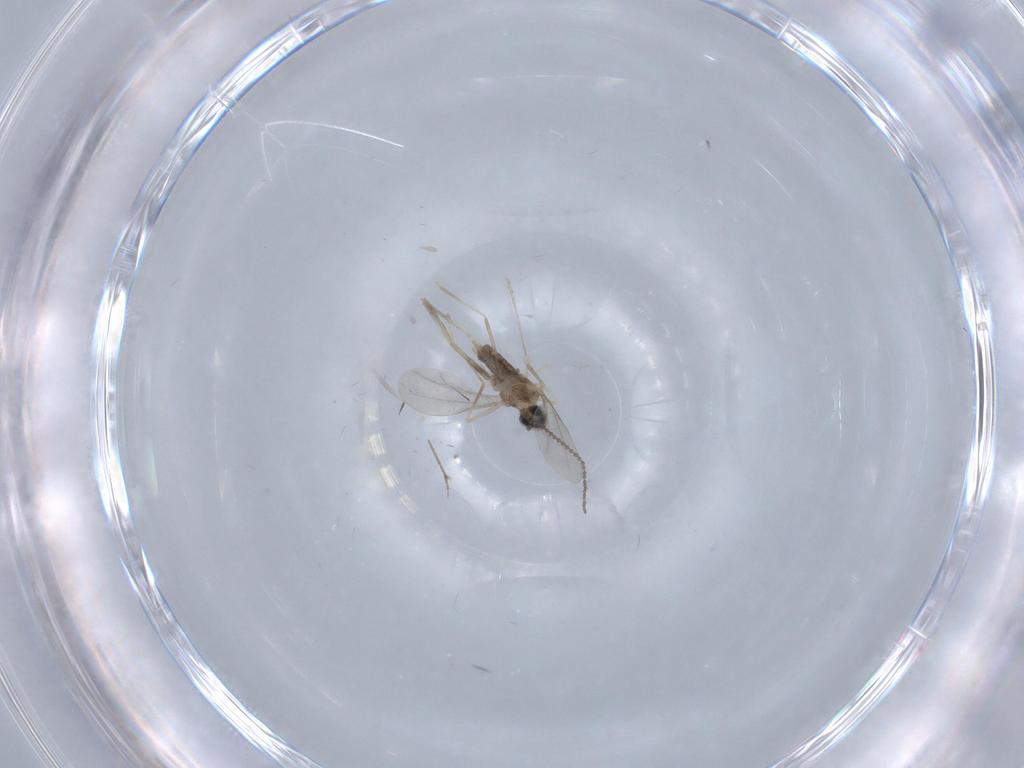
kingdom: Animalia
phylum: Arthropoda
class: Insecta
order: Diptera
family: Cecidomyiidae
